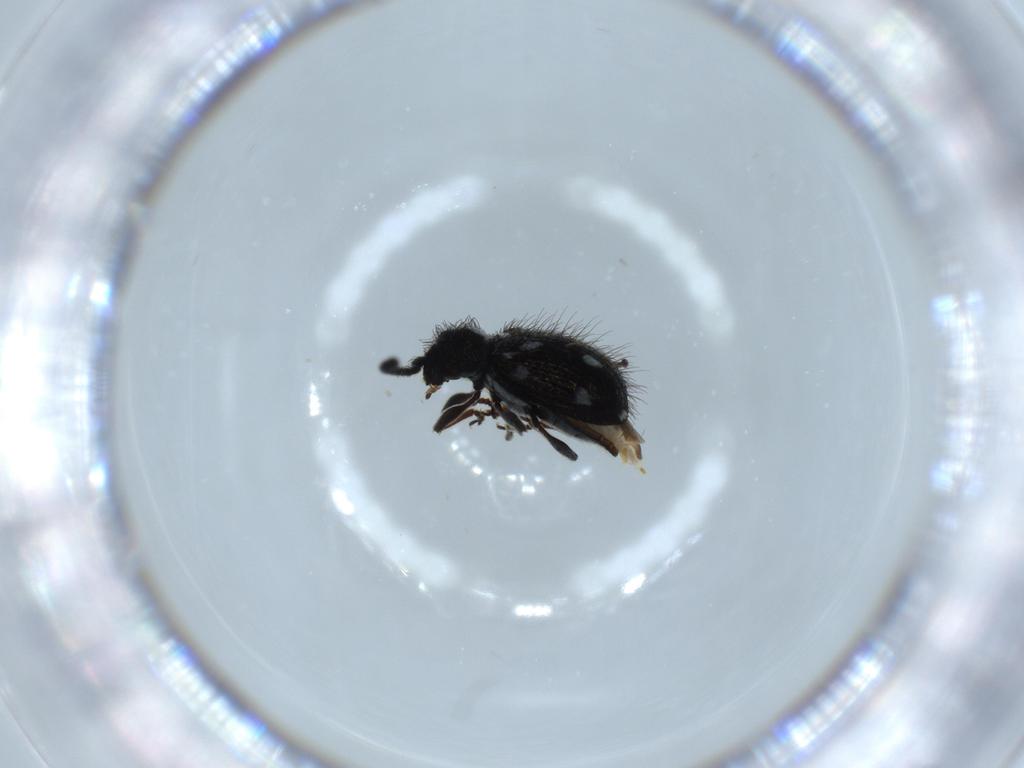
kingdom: Animalia
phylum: Arthropoda
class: Insecta
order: Coleoptera
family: Ptinidae
